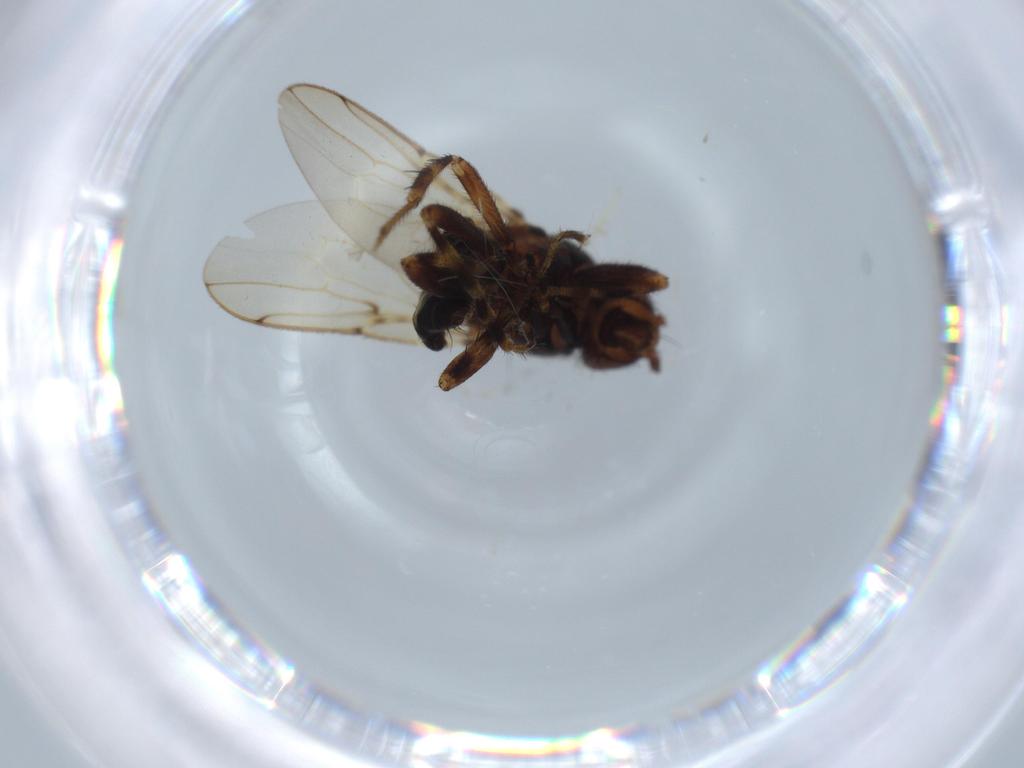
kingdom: Animalia
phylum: Arthropoda
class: Insecta
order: Diptera
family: Sphaeroceridae
